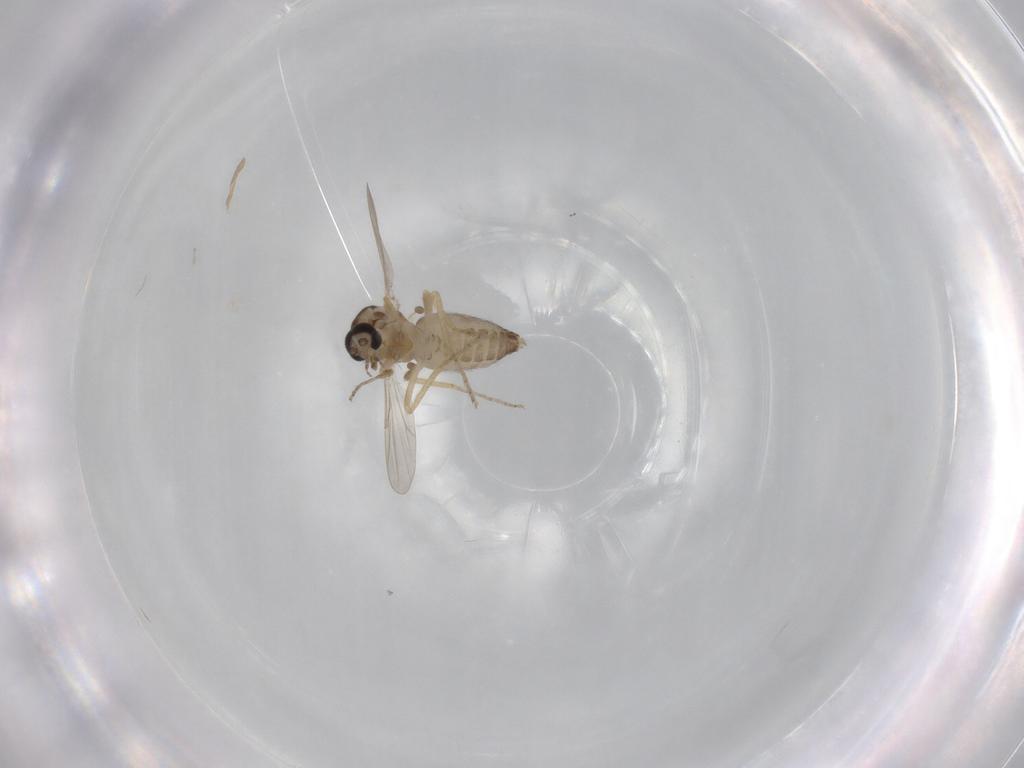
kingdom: Animalia
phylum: Arthropoda
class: Insecta
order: Diptera
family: Ceratopogonidae
